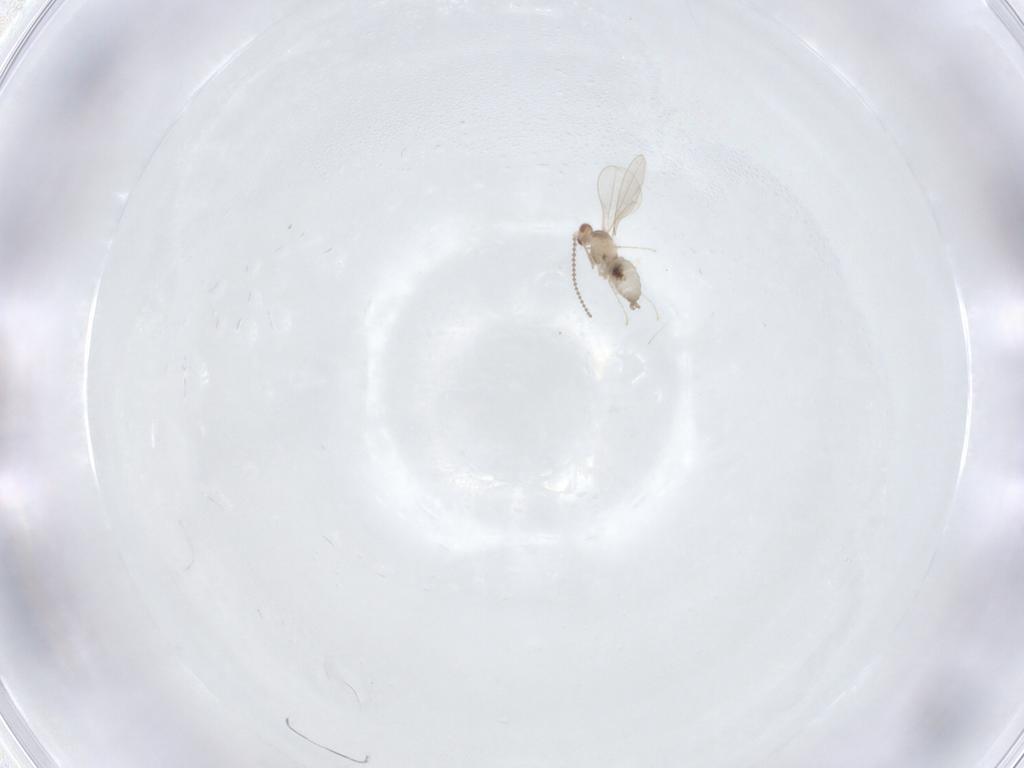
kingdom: Animalia
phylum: Arthropoda
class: Insecta
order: Diptera
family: Cecidomyiidae
